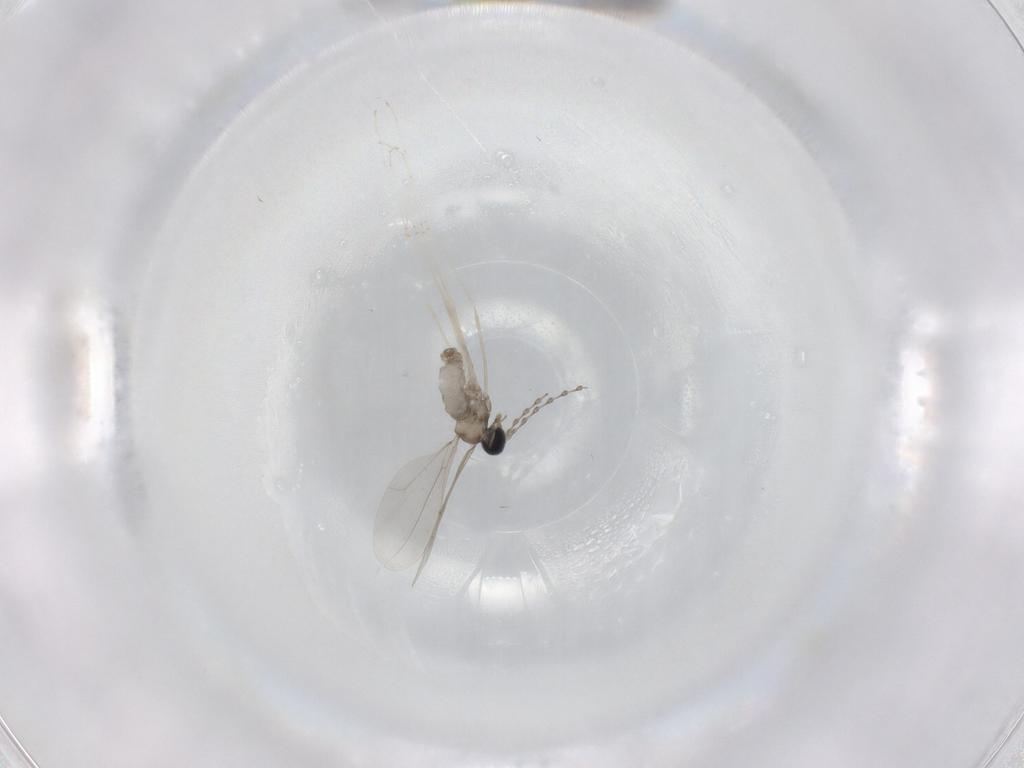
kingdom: Animalia
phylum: Arthropoda
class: Insecta
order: Diptera
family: Cecidomyiidae
